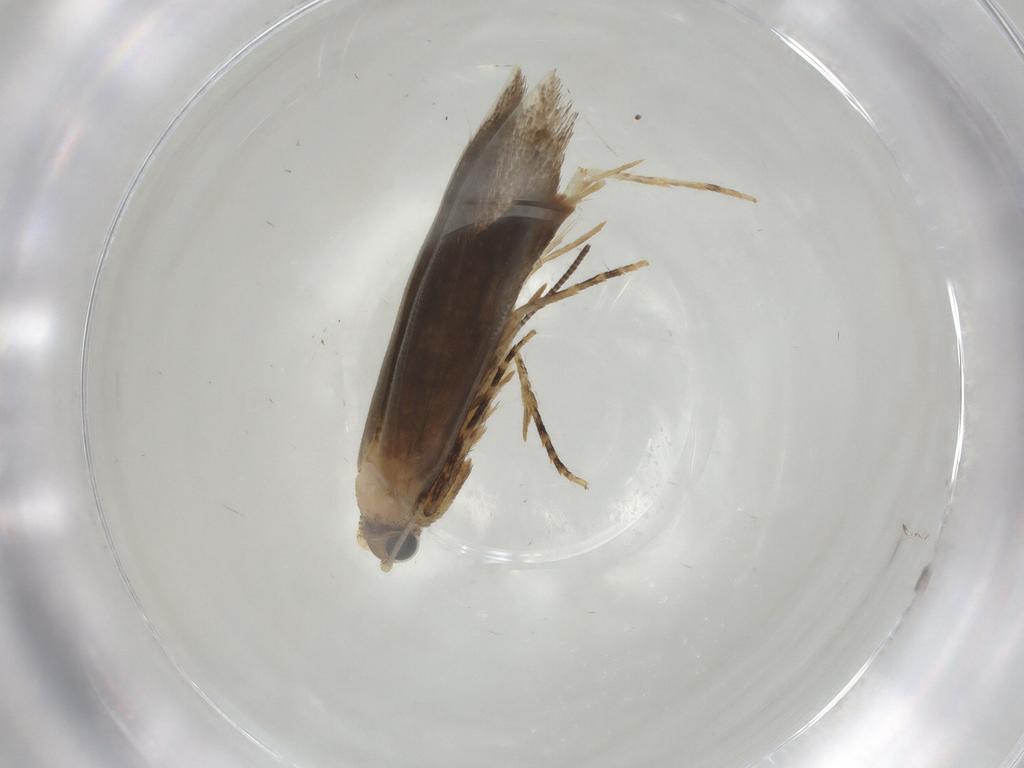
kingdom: Animalia
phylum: Arthropoda
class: Insecta
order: Lepidoptera
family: Tineidae
